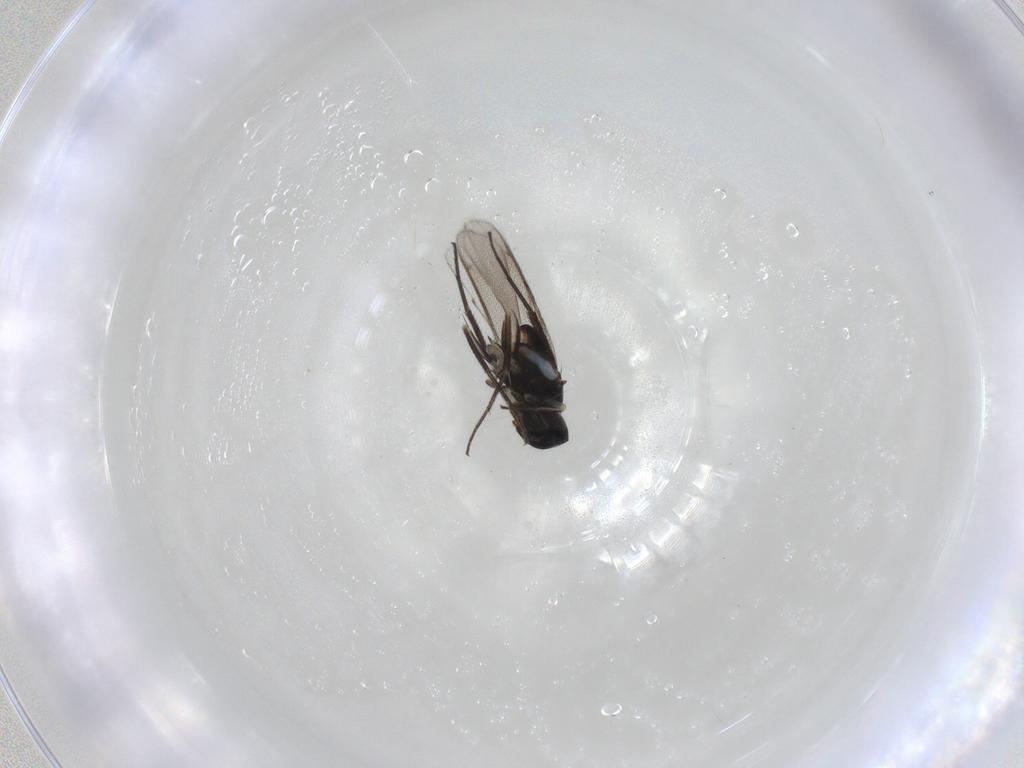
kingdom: Animalia
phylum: Arthropoda
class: Insecta
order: Hymenoptera
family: Eulophidae
